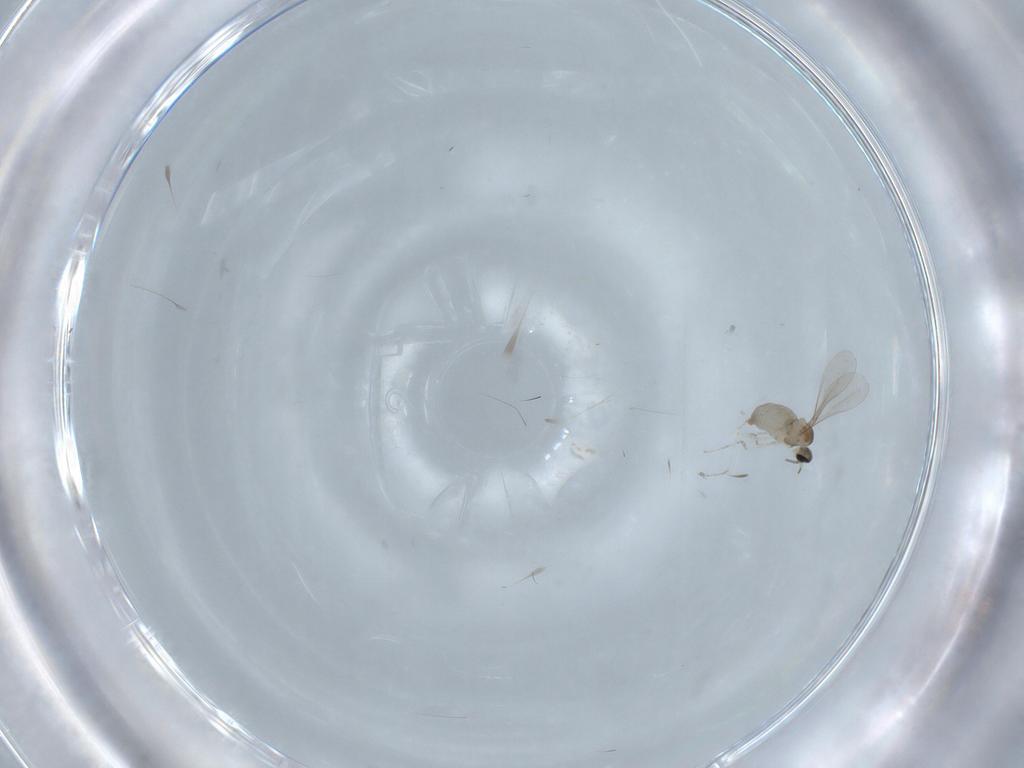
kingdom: Animalia
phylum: Arthropoda
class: Insecta
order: Diptera
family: Cecidomyiidae
